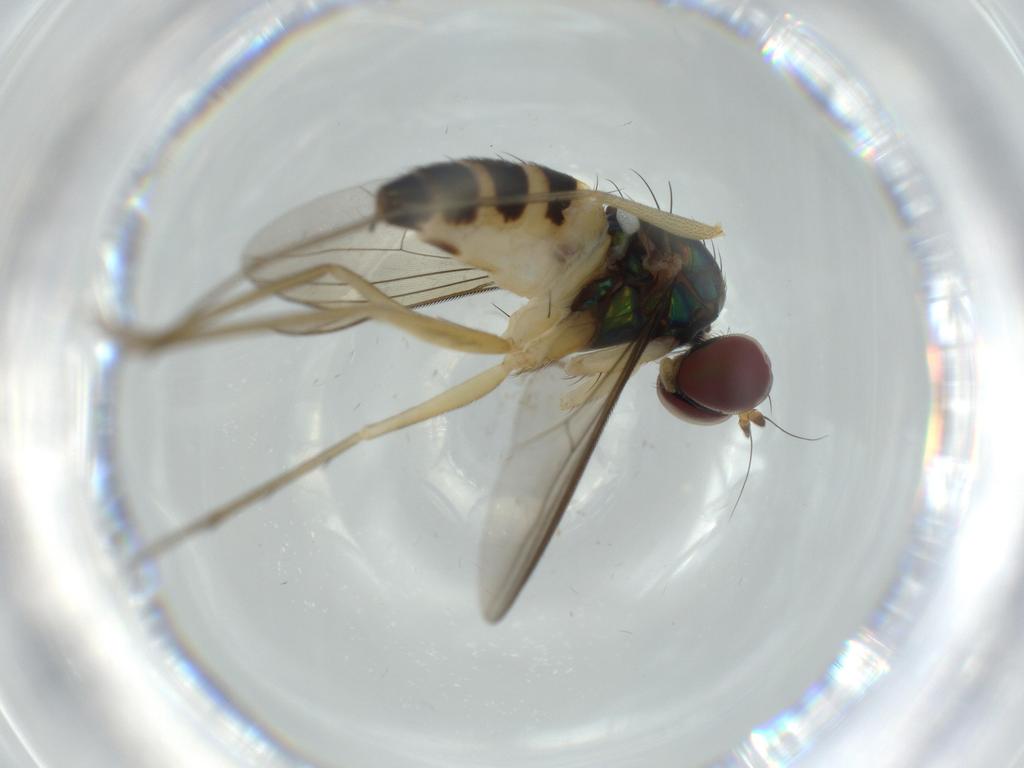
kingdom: Animalia
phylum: Arthropoda
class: Insecta
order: Diptera
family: Dolichopodidae
